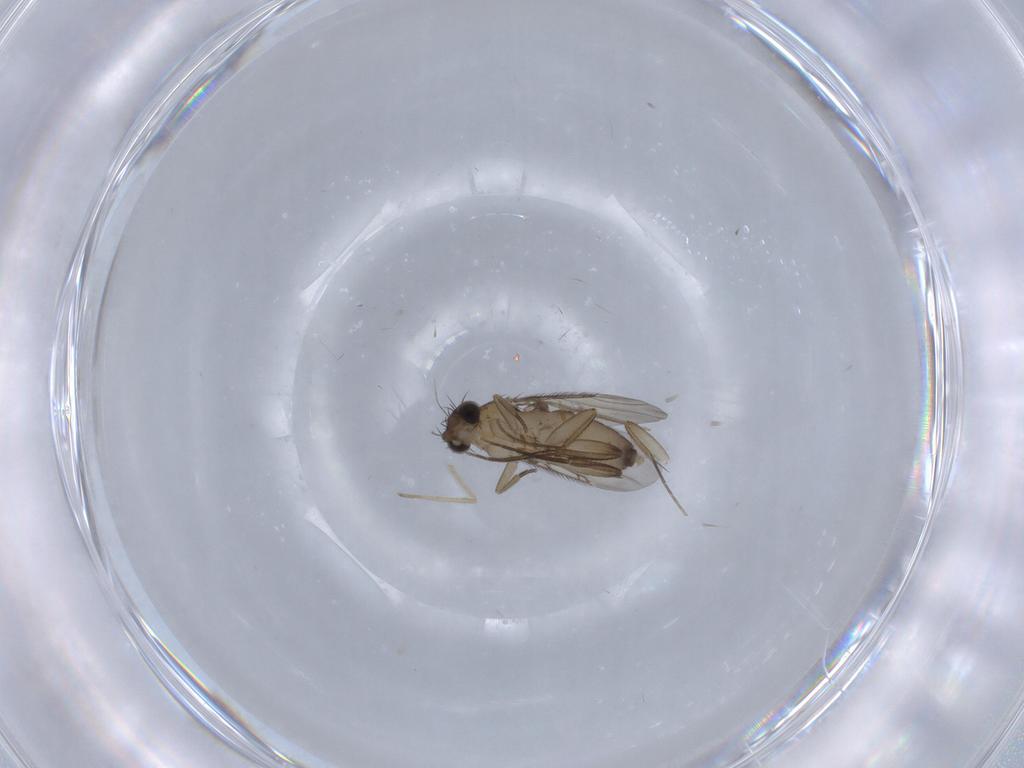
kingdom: Animalia
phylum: Arthropoda
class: Insecta
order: Diptera
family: Phoridae
